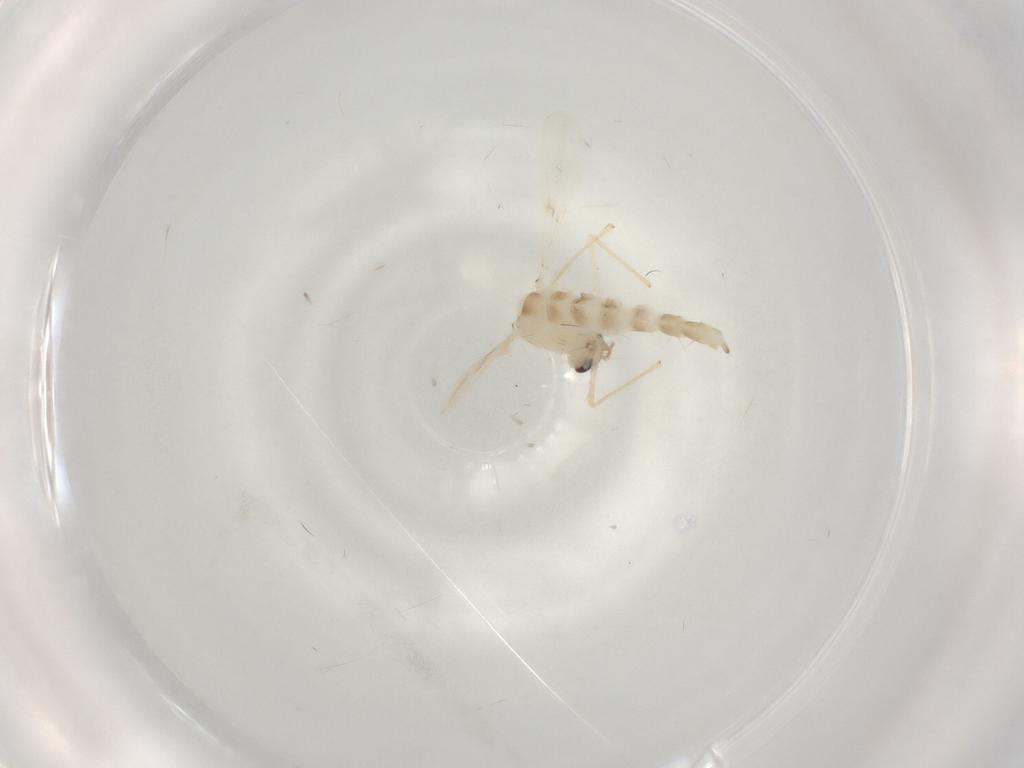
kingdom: Animalia
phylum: Arthropoda
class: Insecta
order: Diptera
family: Chironomidae
